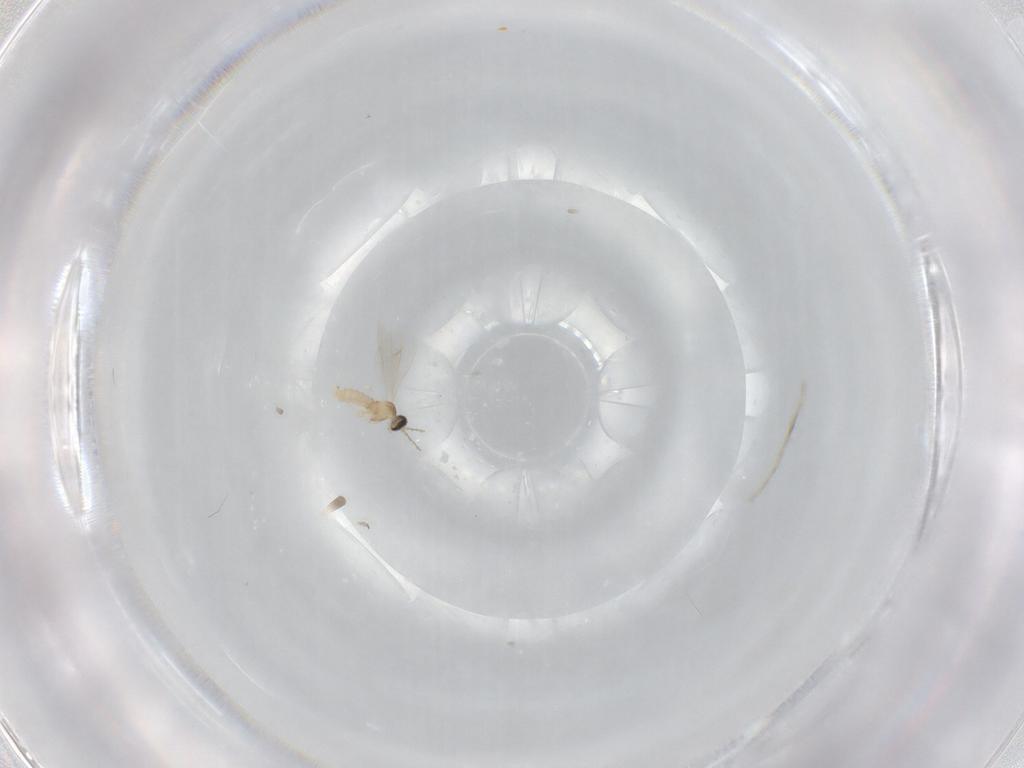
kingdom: Animalia
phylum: Arthropoda
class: Insecta
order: Diptera
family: Cecidomyiidae
